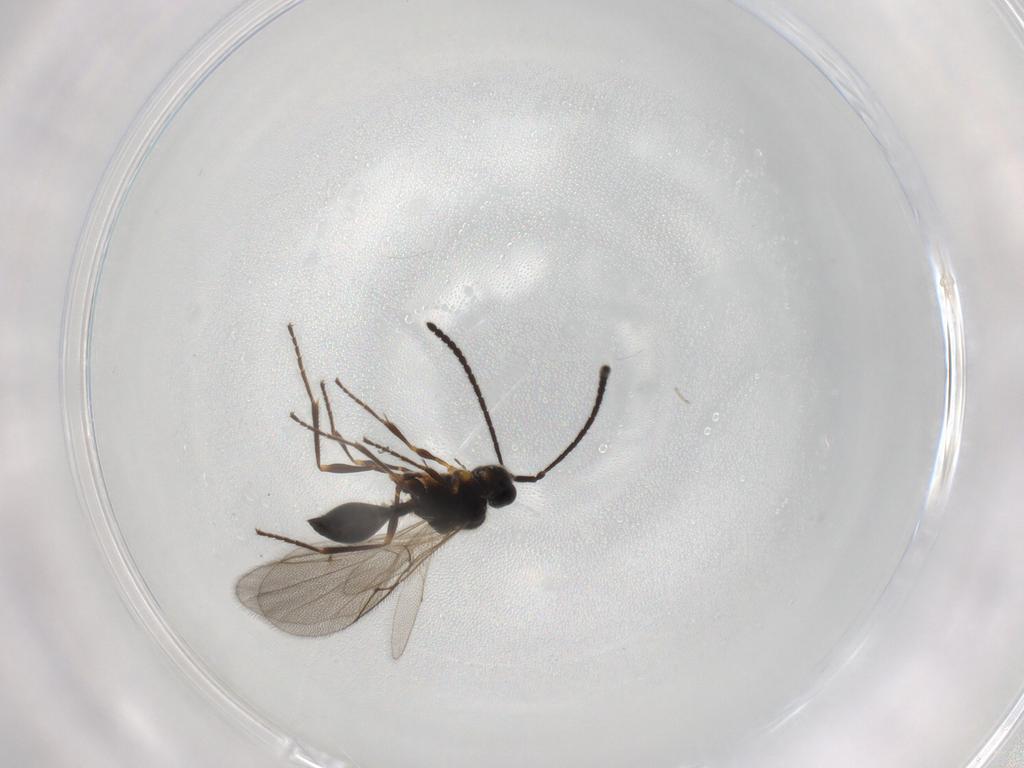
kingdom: Animalia
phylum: Arthropoda
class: Insecta
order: Hymenoptera
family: Diapriidae
